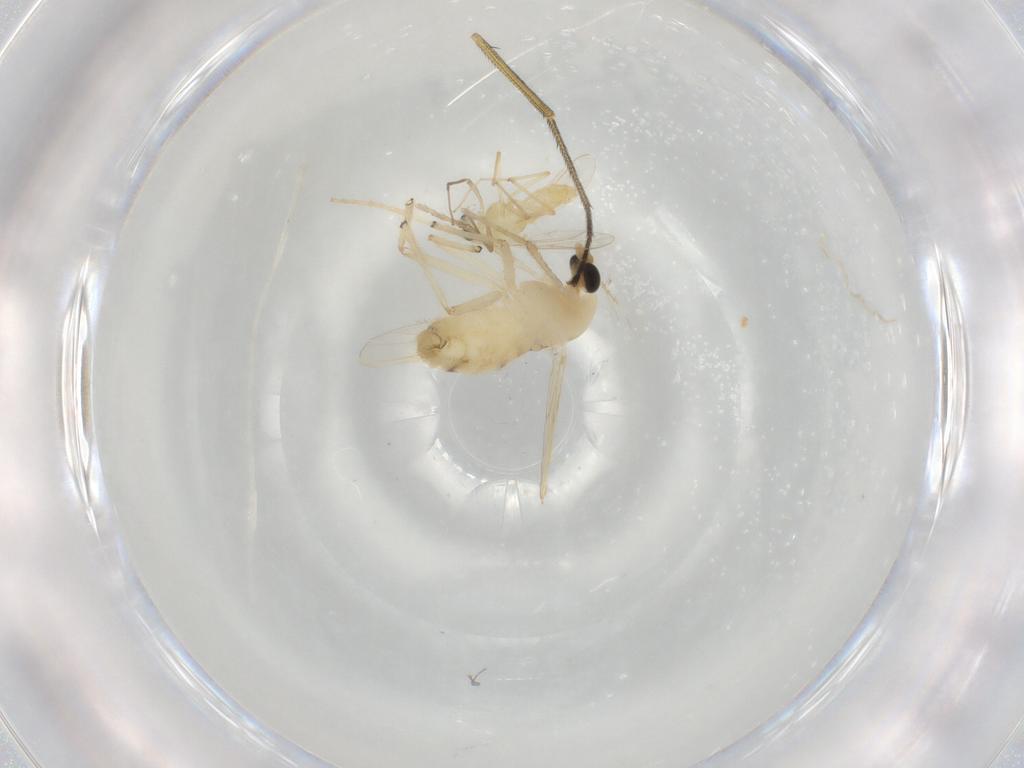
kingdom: Animalia
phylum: Arthropoda
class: Insecta
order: Diptera
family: Chironomidae
